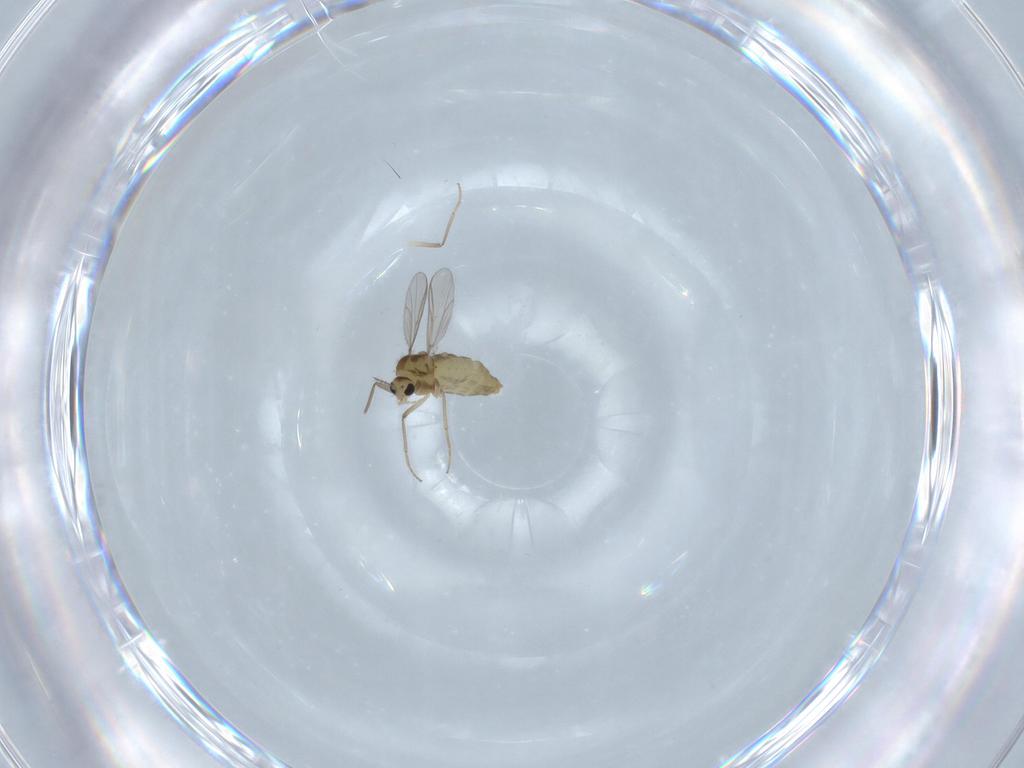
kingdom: Animalia
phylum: Arthropoda
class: Insecta
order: Diptera
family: Chironomidae
